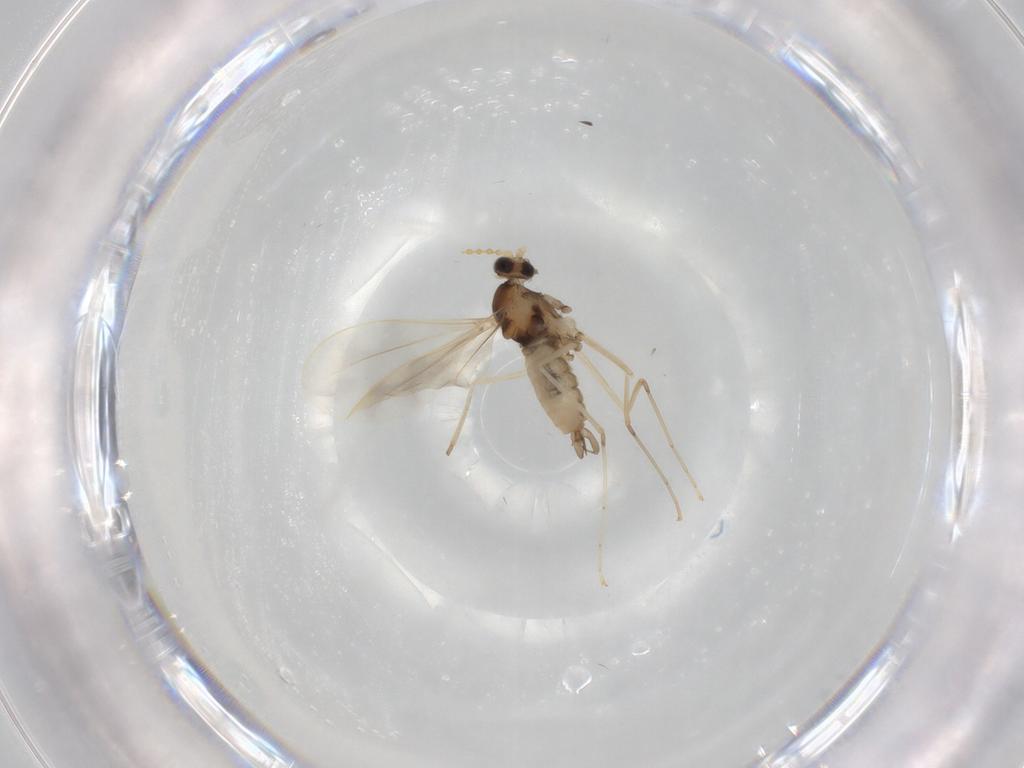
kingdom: Animalia
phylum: Arthropoda
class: Insecta
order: Diptera
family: Cecidomyiidae
